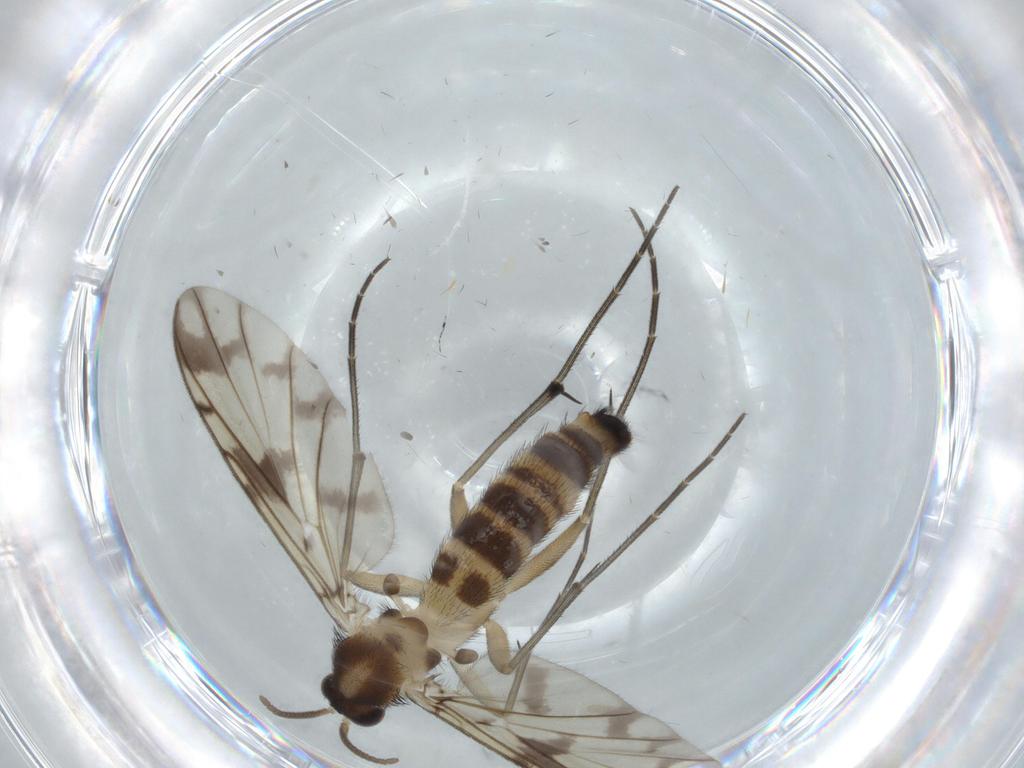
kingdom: Animalia
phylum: Arthropoda
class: Insecta
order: Diptera
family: Keroplatidae
